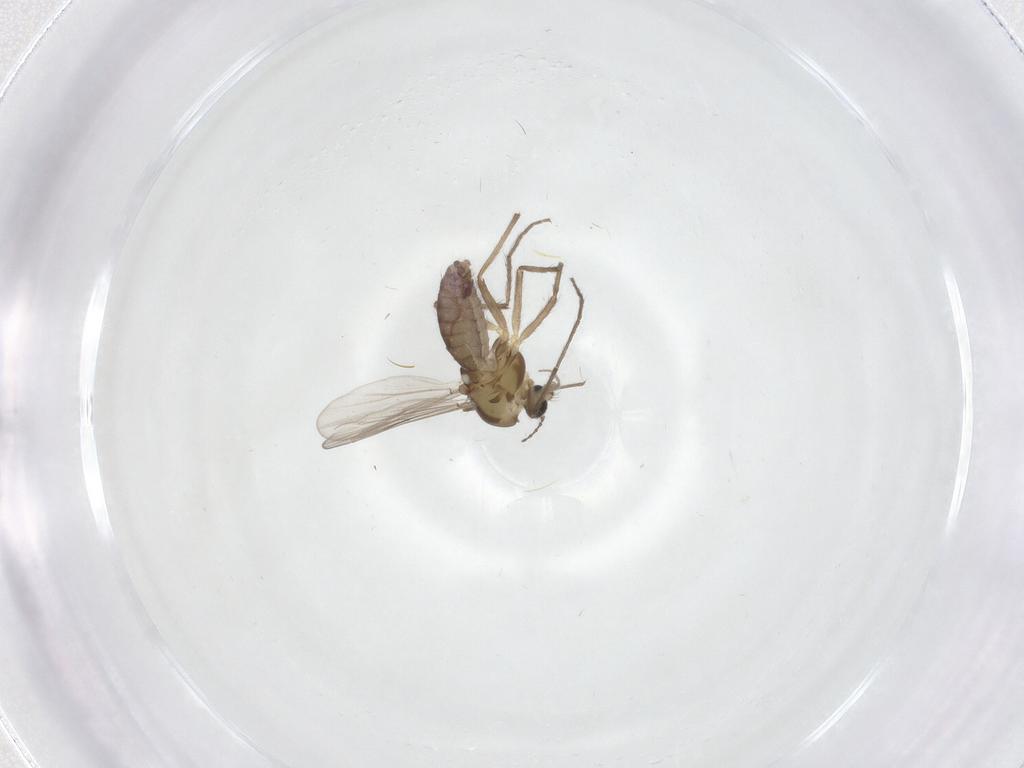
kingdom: Animalia
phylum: Arthropoda
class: Insecta
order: Diptera
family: Chironomidae
